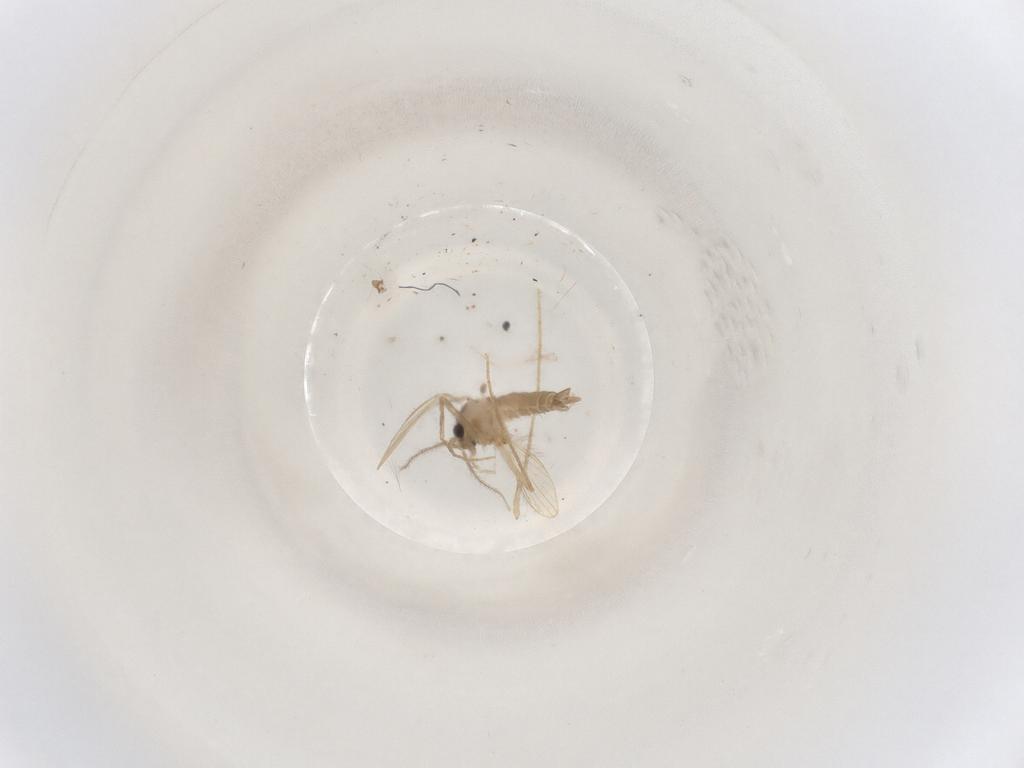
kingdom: Animalia
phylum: Arthropoda
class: Insecta
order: Diptera
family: Psychodidae
